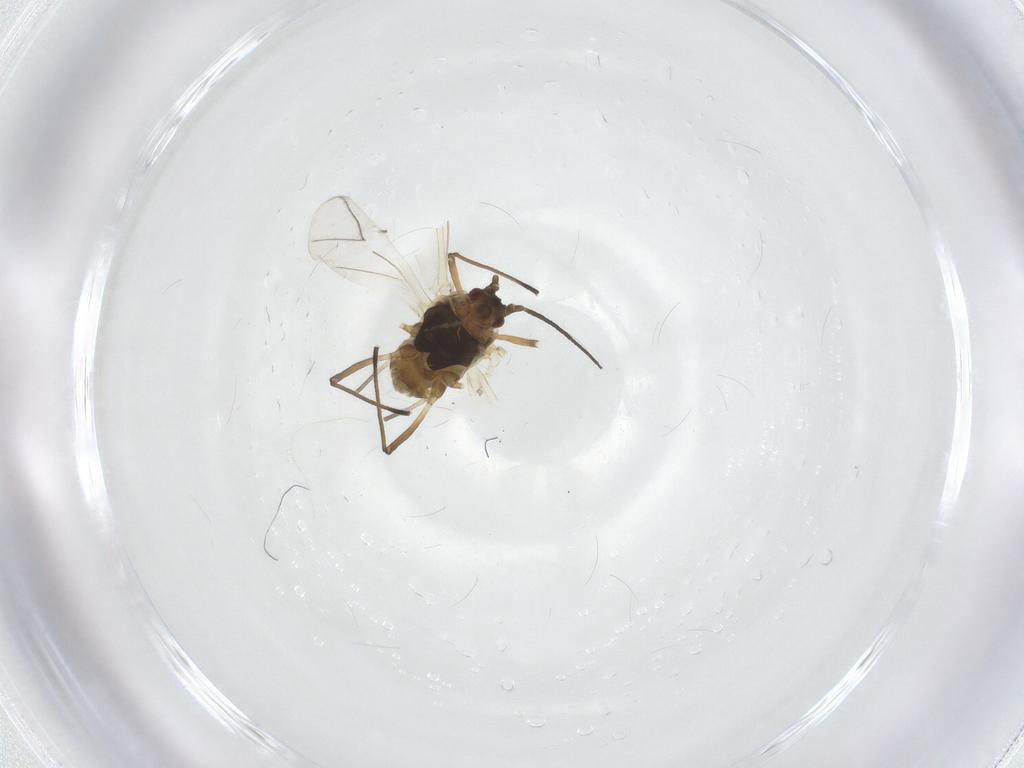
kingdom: Animalia
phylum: Arthropoda
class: Insecta
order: Hemiptera
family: Aphididae
